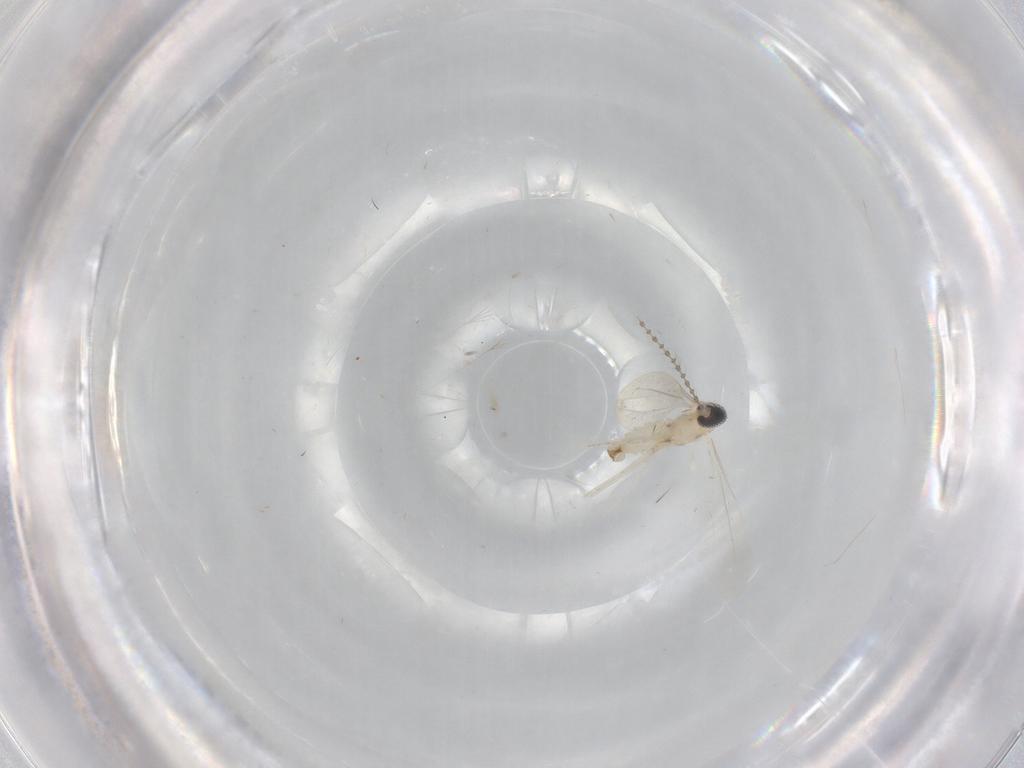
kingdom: Animalia
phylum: Arthropoda
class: Insecta
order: Diptera
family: Cecidomyiidae
